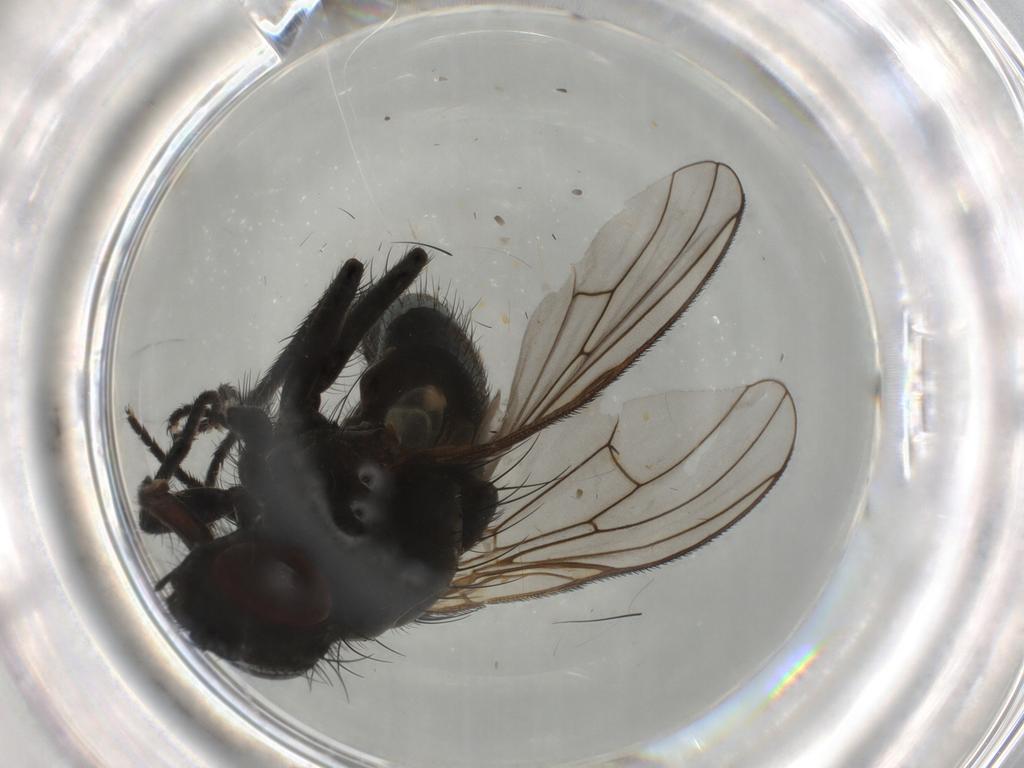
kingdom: Animalia
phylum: Arthropoda
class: Insecta
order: Diptera
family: Muscidae
